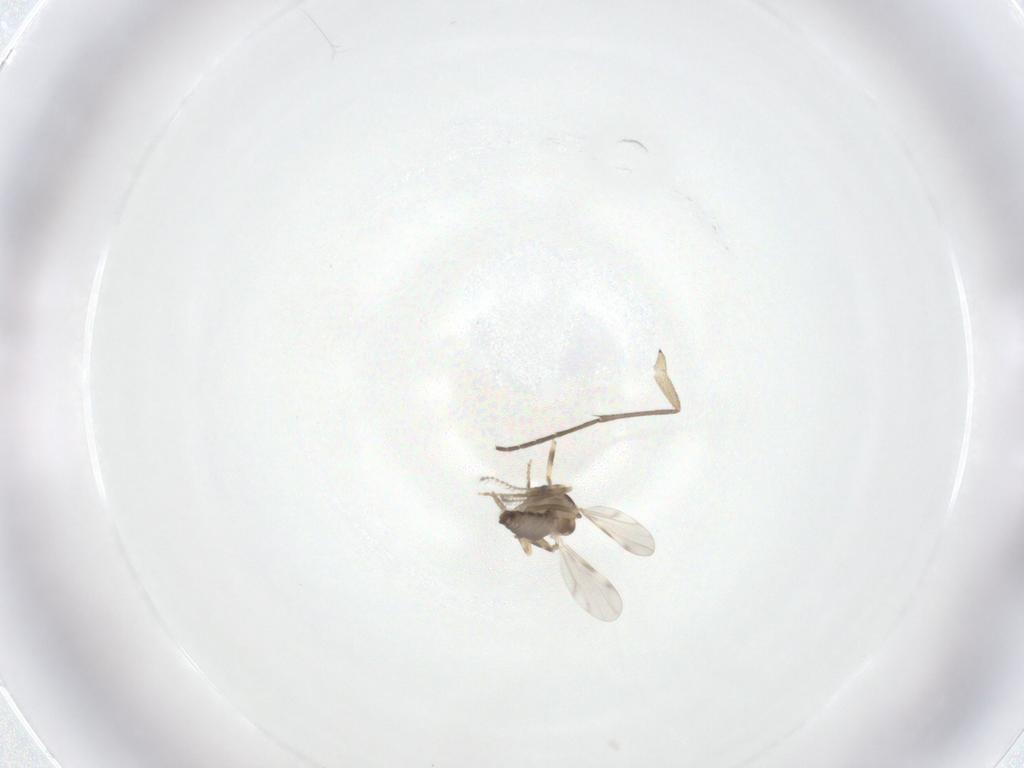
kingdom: Animalia
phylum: Arthropoda
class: Insecta
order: Diptera
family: Sciaridae
